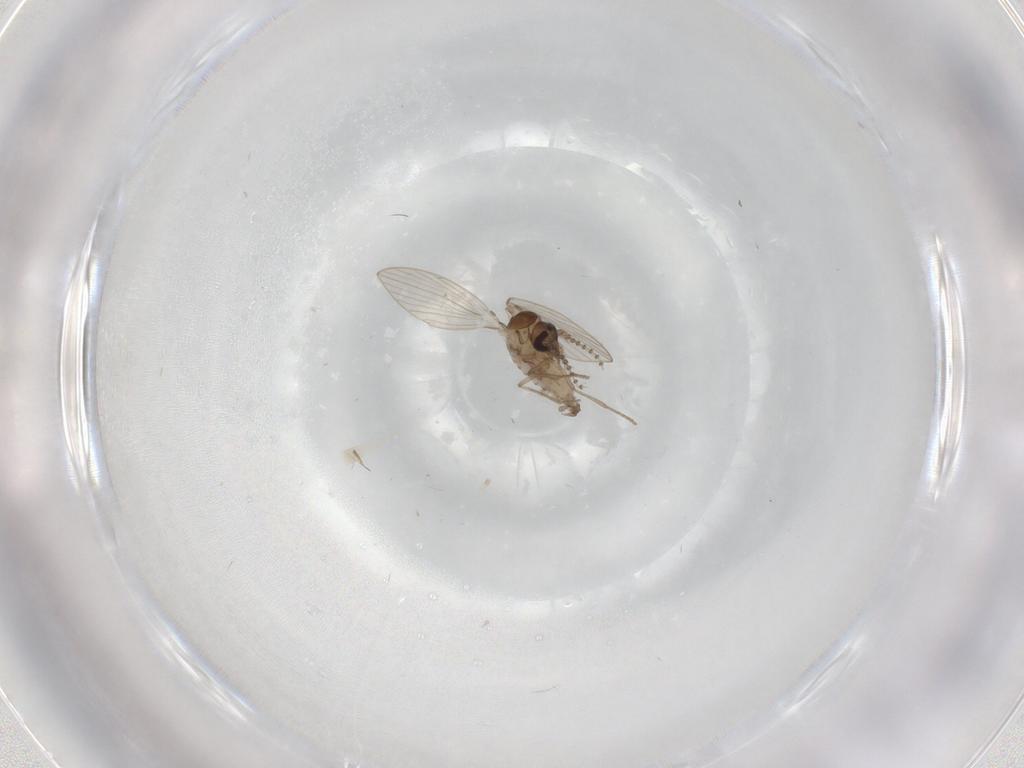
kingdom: Animalia
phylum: Arthropoda
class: Insecta
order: Diptera
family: Psychodidae
